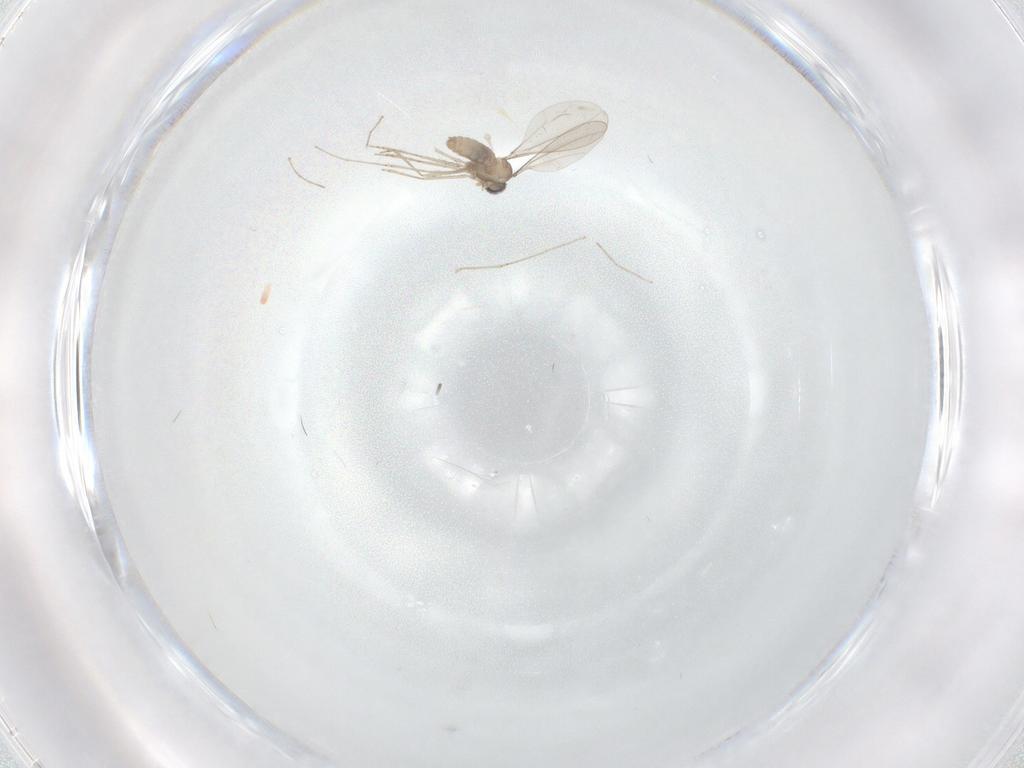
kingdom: Animalia
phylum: Arthropoda
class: Insecta
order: Diptera
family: Cecidomyiidae
